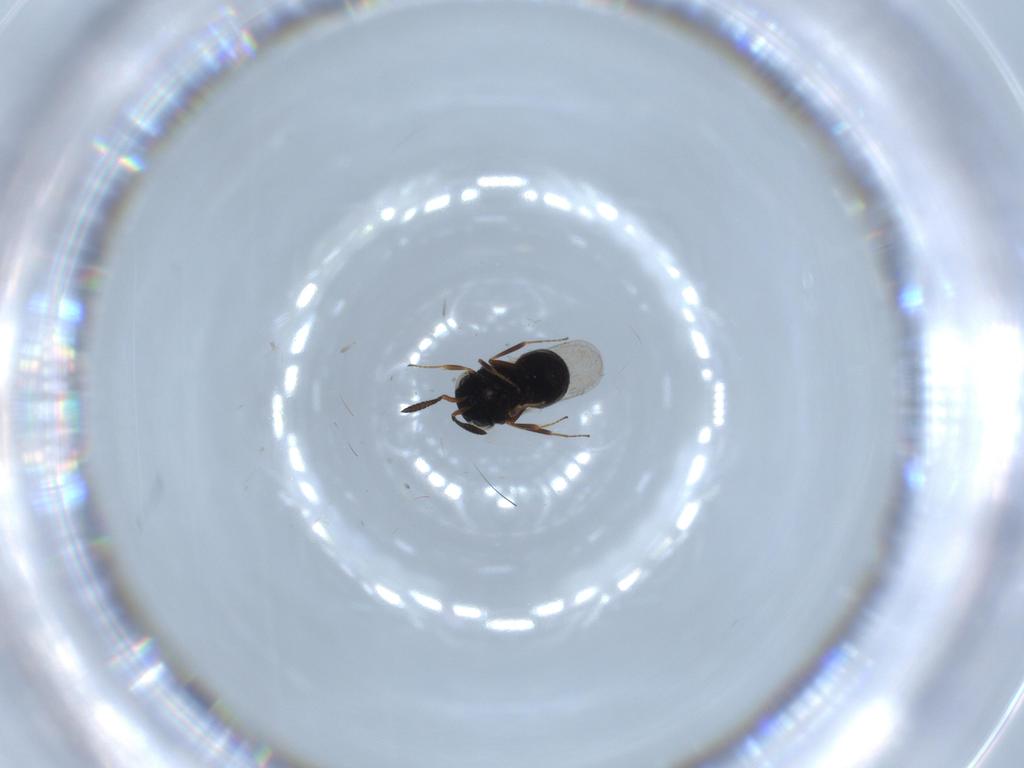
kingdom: Animalia
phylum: Arthropoda
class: Insecta
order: Hymenoptera
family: Scelionidae
